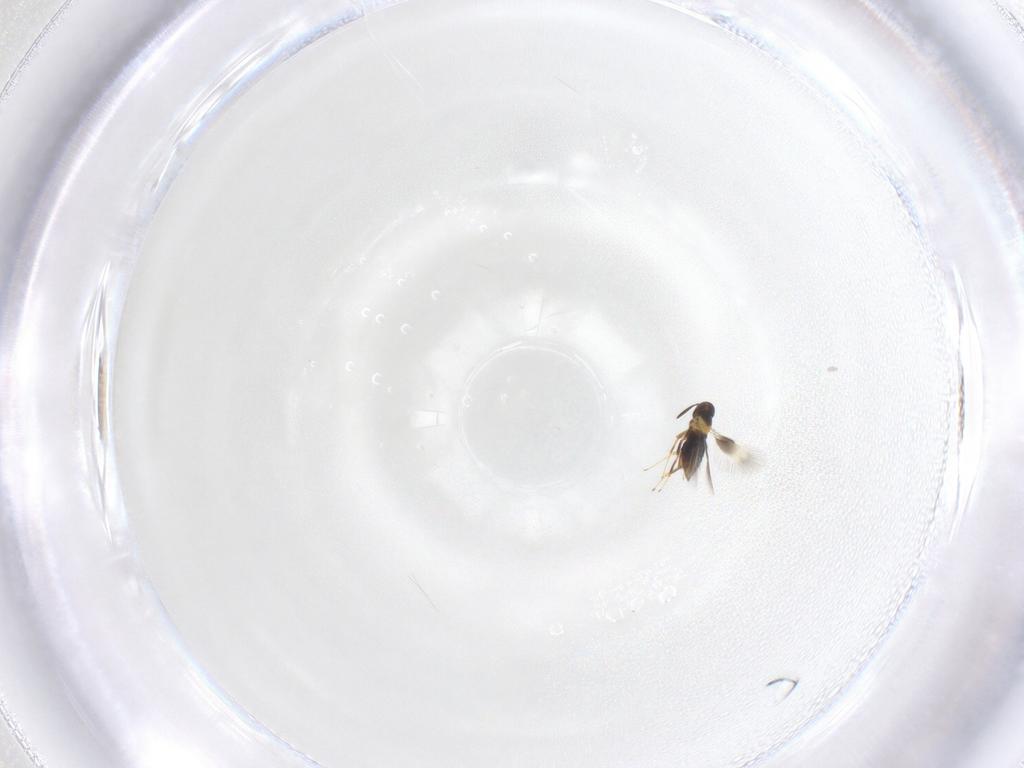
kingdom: Animalia
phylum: Arthropoda
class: Insecta
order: Hymenoptera
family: Signiphoridae
